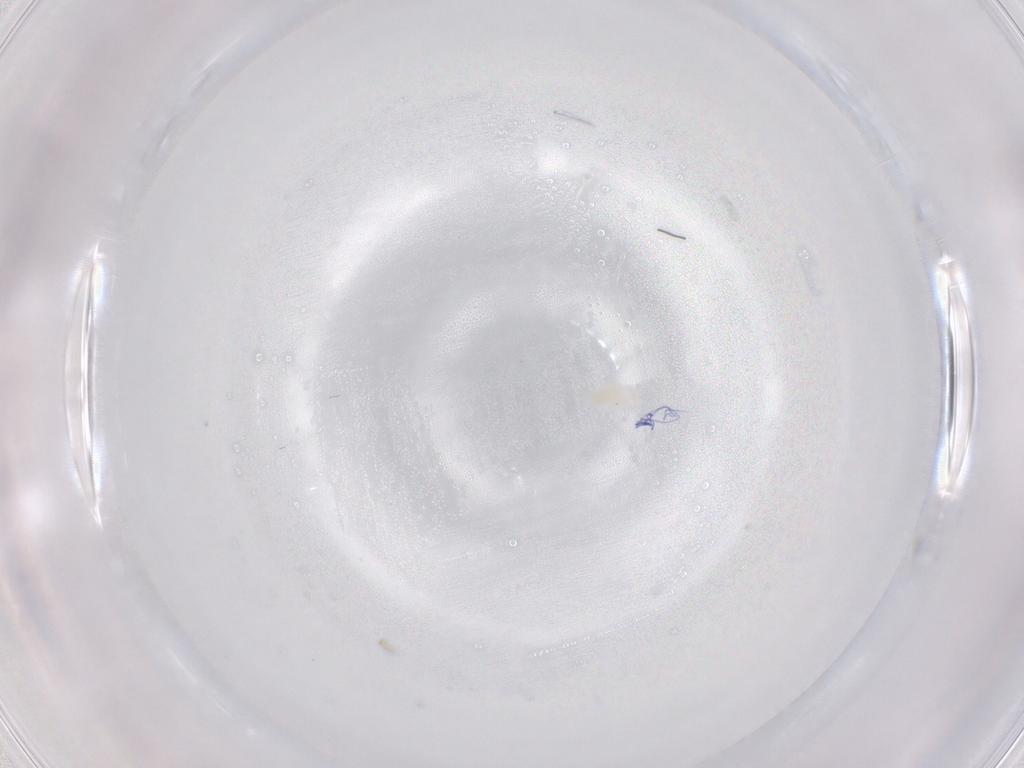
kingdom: Animalia
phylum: Arthropoda
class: Arachnida
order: Trombidiformes
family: Eupodidae
